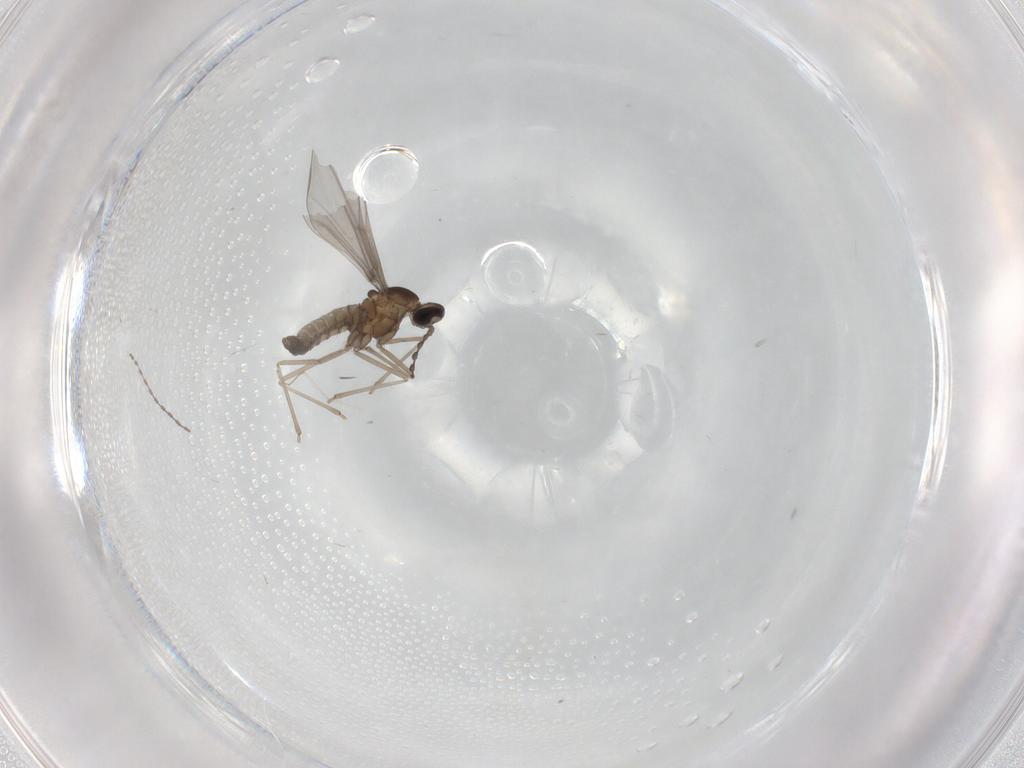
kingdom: Animalia
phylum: Arthropoda
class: Insecta
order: Diptera
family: Cecidomyiidae
